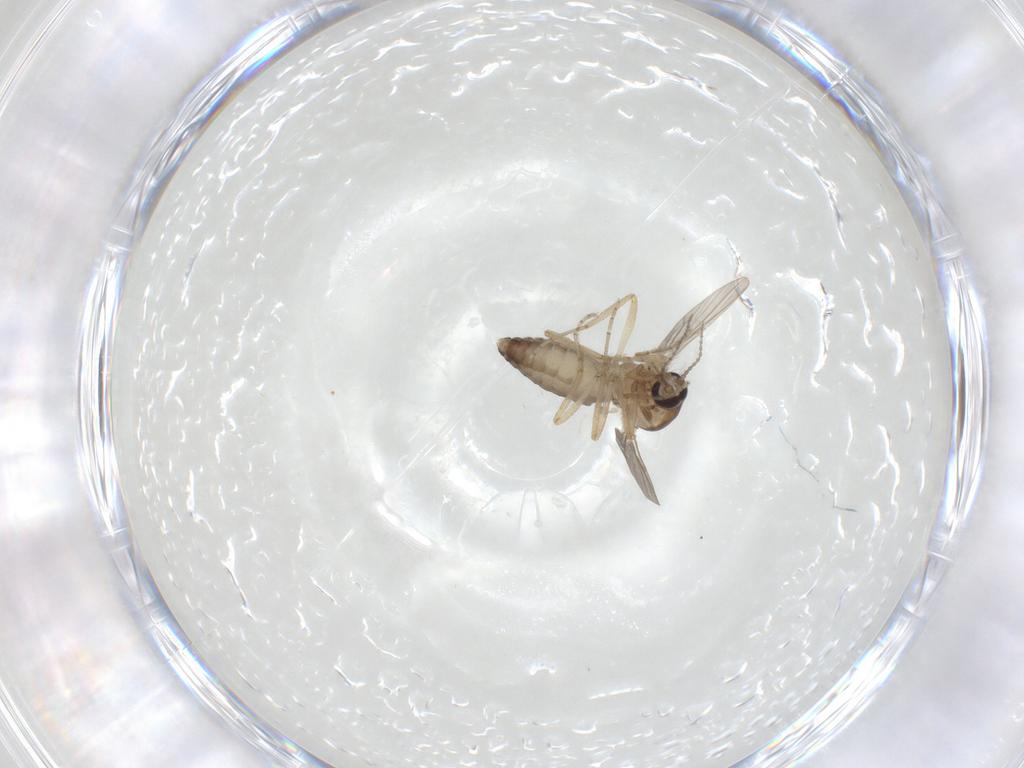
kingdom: Animalia
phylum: Arthropoda
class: Insecta
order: Diptera
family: Ceratopogonidae
